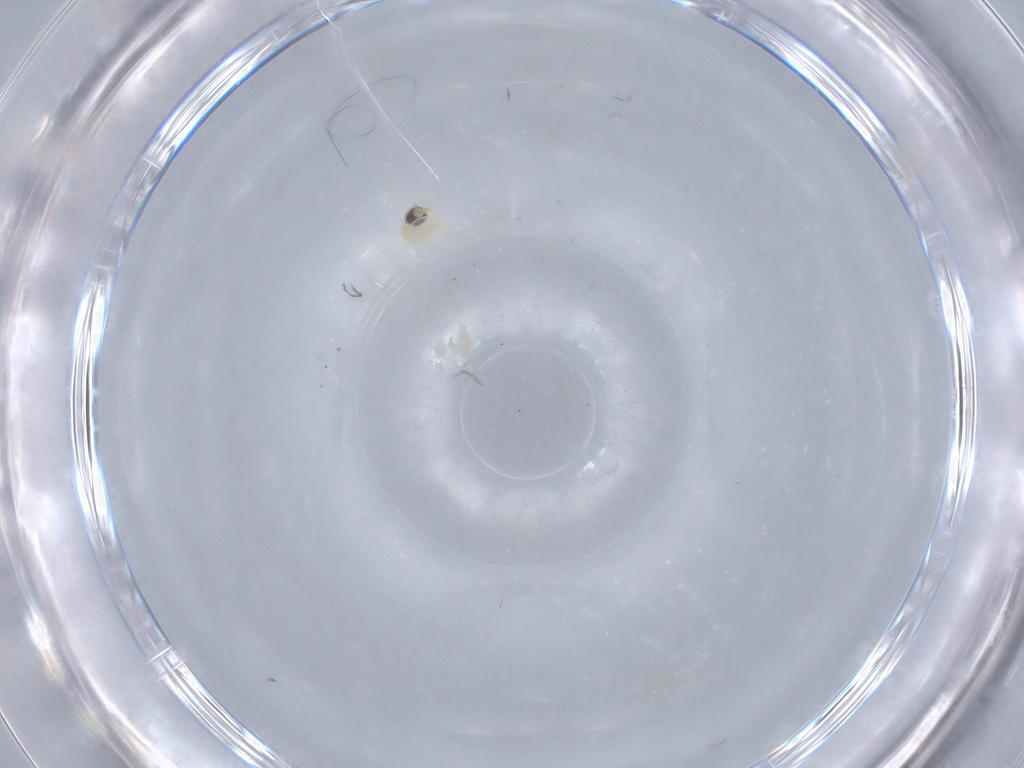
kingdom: Animalia
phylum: Arthropoda
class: Insecta
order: Diptera
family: Cecidomyiidae
